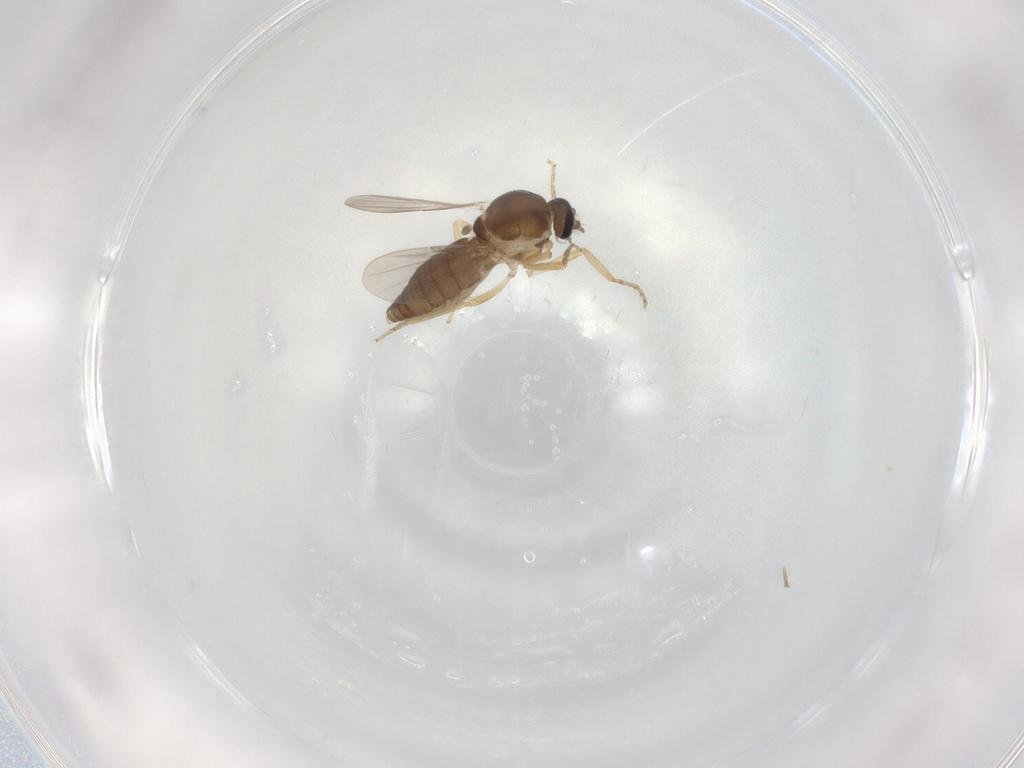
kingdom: Animalia
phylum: Arthropoda
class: Insecta
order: Diptera
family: Ceratopogonidae
